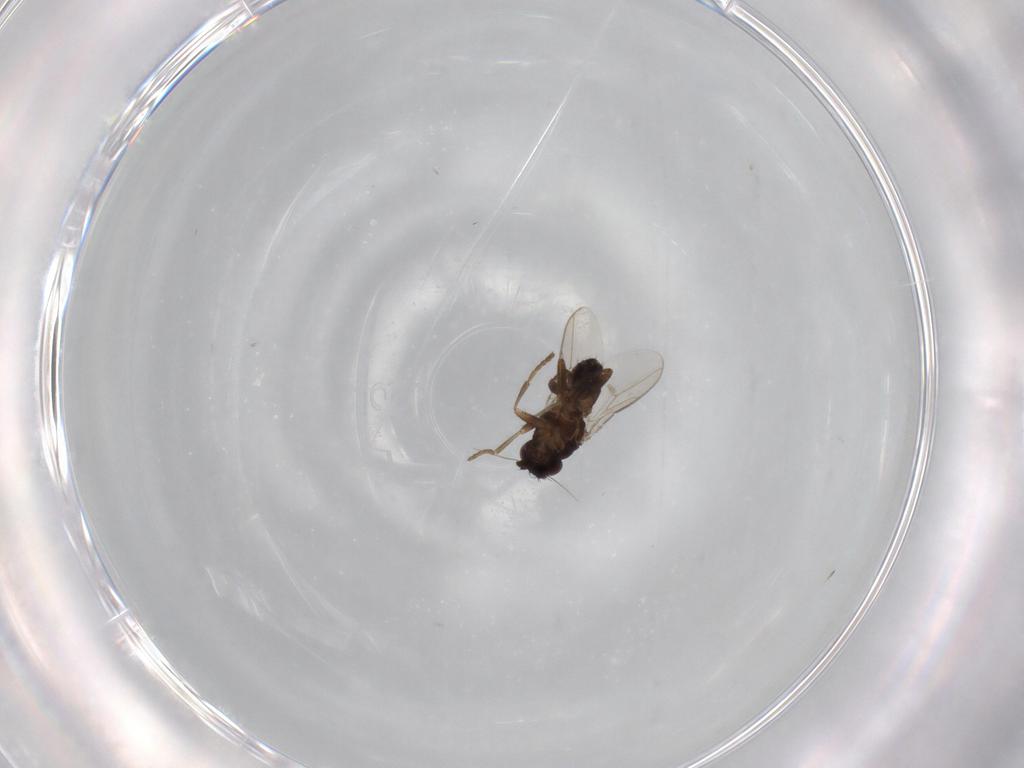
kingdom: Animalia
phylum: Arthropoda
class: Insecta
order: Diptera
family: Sphaeroceridae
